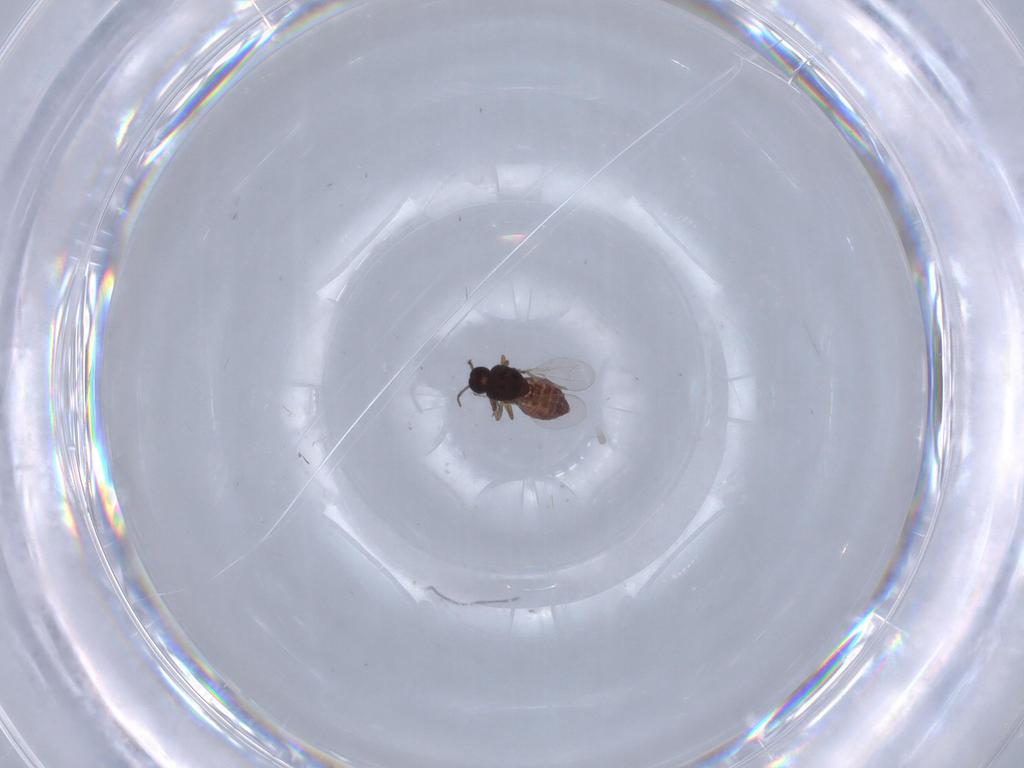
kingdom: Animalia
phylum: Arthropoda
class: Insecta
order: Diptera
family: Ceratopogonidae
